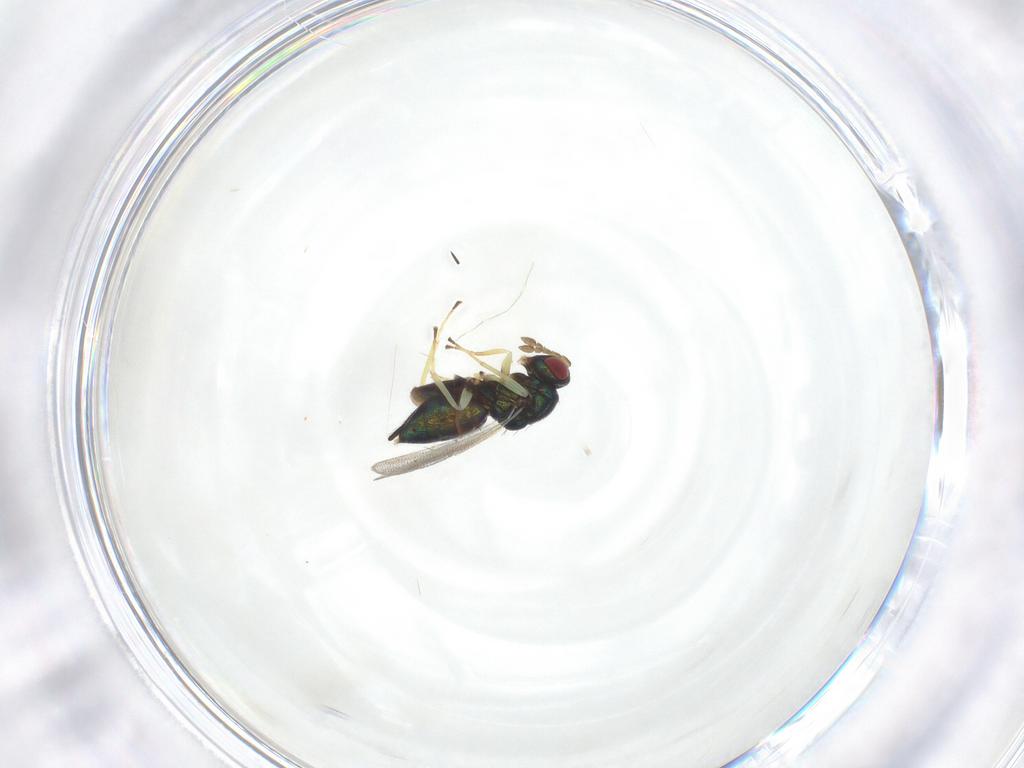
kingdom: Animalia
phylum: Arthropoda
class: Insecta
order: Hymenoptera
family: Eulophidae
